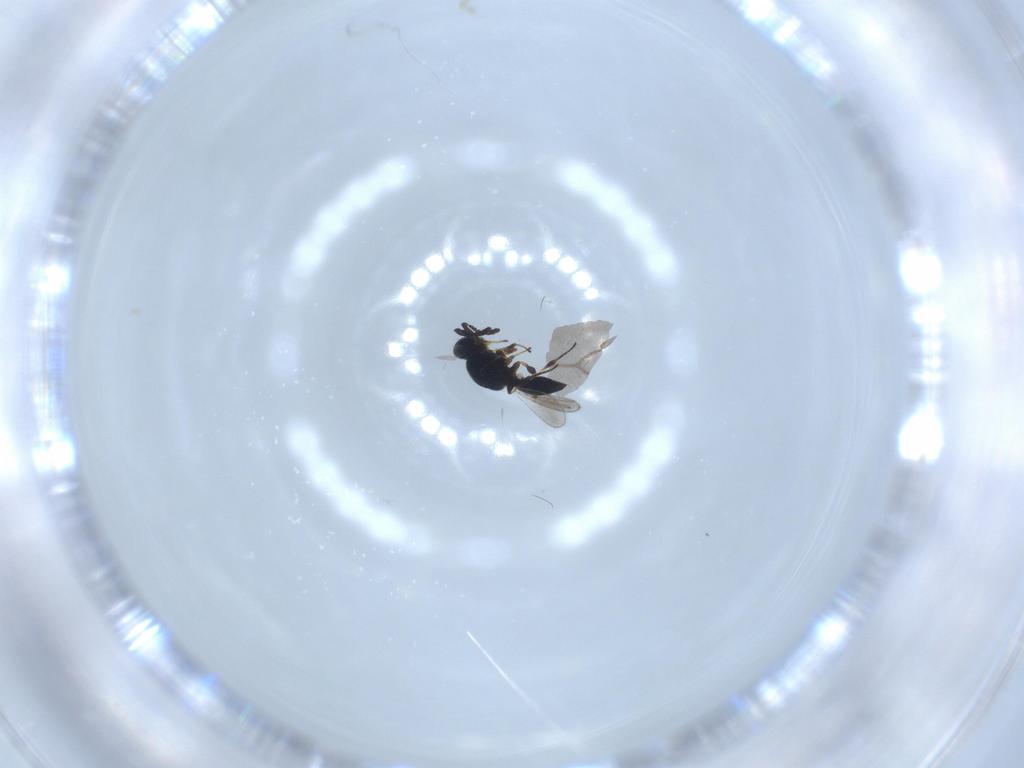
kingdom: Animalia
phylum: Arthropoda
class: Insecta
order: Hymenoptera
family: Platygastridae
